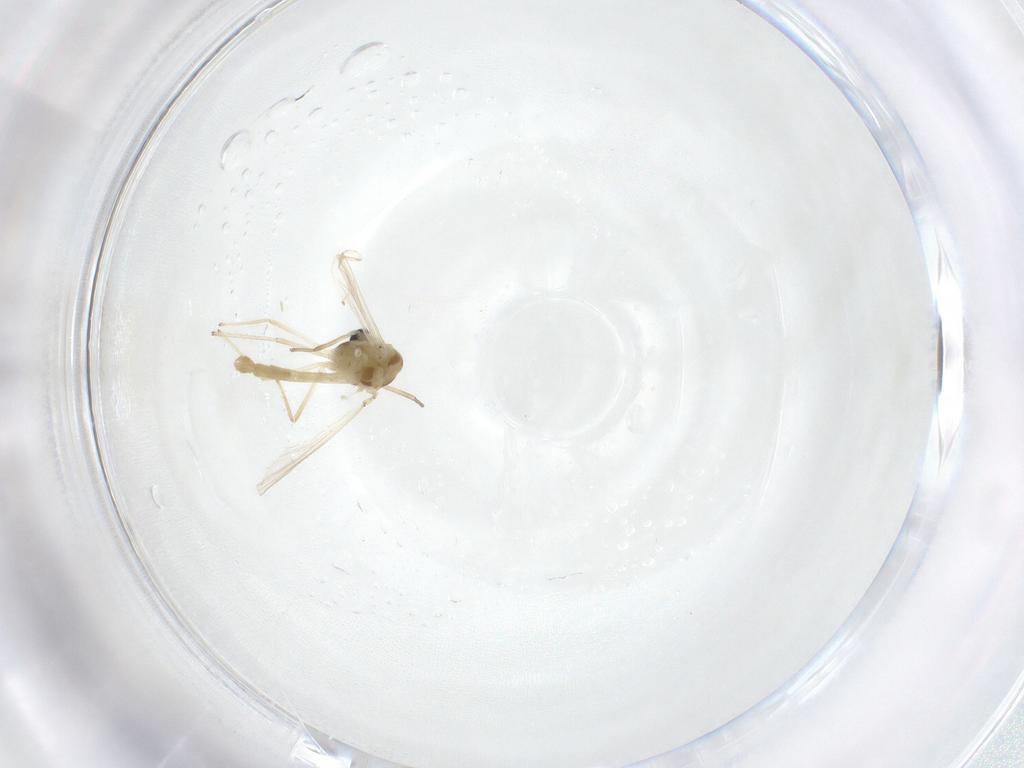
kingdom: Animalia
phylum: Arthropoda
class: Insecta
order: Diptera
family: Chironomidae
